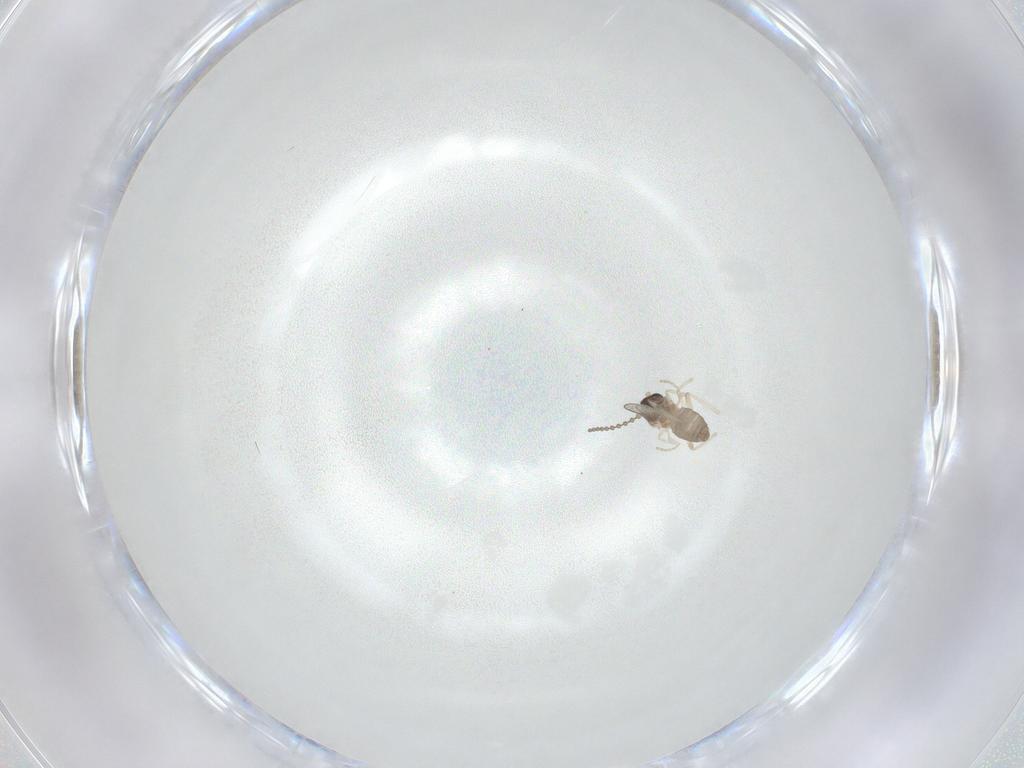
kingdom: Animalia
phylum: Arthropoda
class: Insecta
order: Diptera
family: Cecidomyiidae
